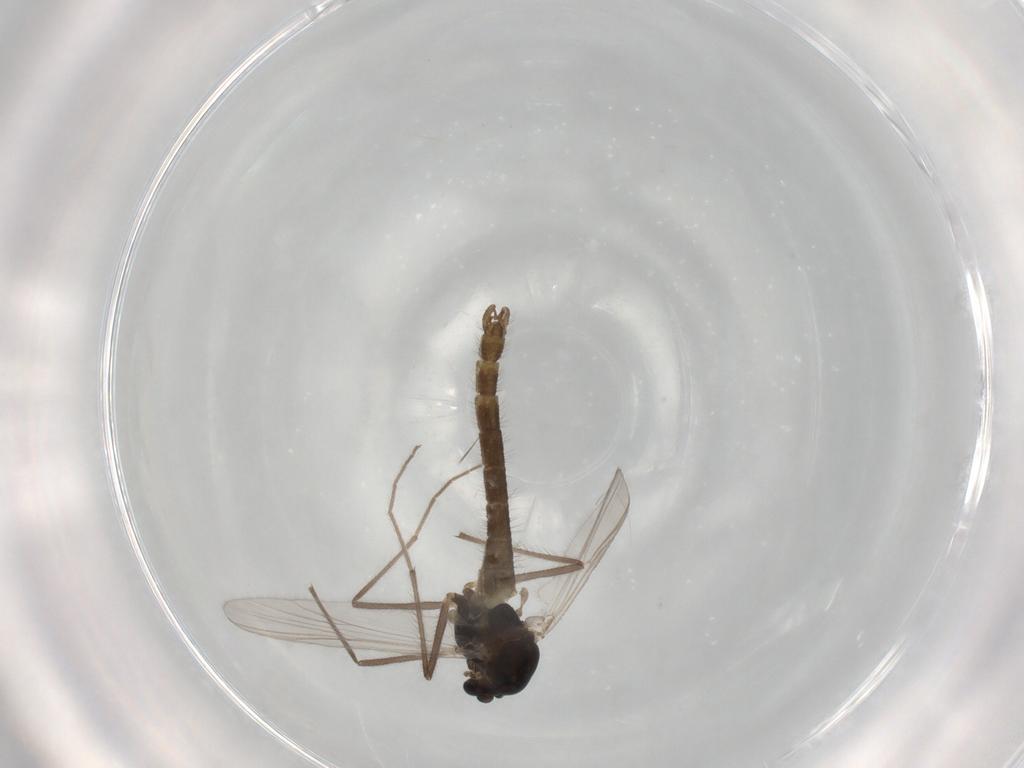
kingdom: Animalia
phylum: Arthropoda
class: Insecta
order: Diptera
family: Chironomidae
